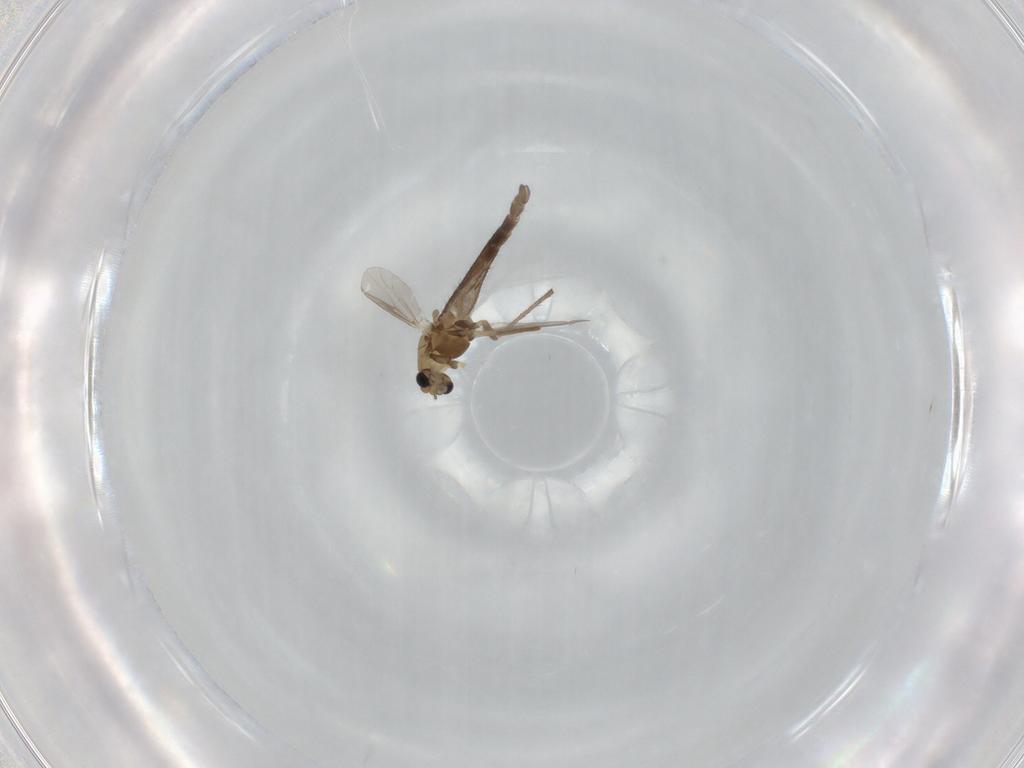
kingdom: Animalia
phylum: Arthropoda
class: Insecta
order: Diptera
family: Chironomidae
